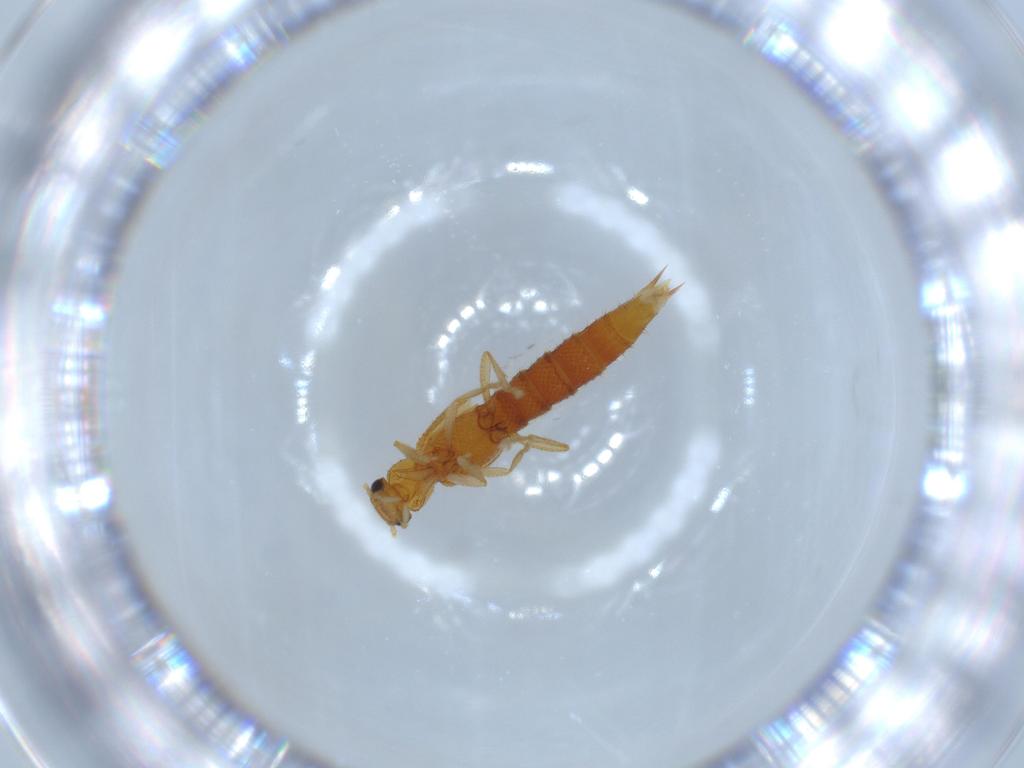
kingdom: Animalia
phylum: Arthropoda
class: Insecta
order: Coleoptera
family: Staphylinidae
